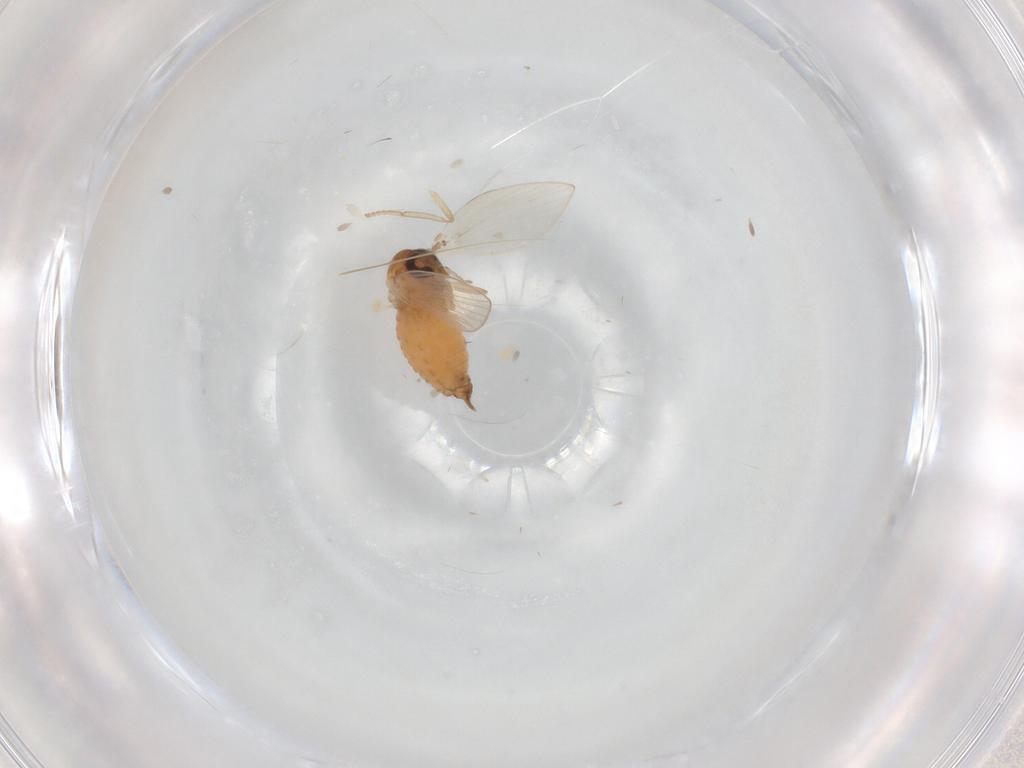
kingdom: Animalia
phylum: Arthropoda
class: Insecta
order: Diptera
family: Psychodidae
